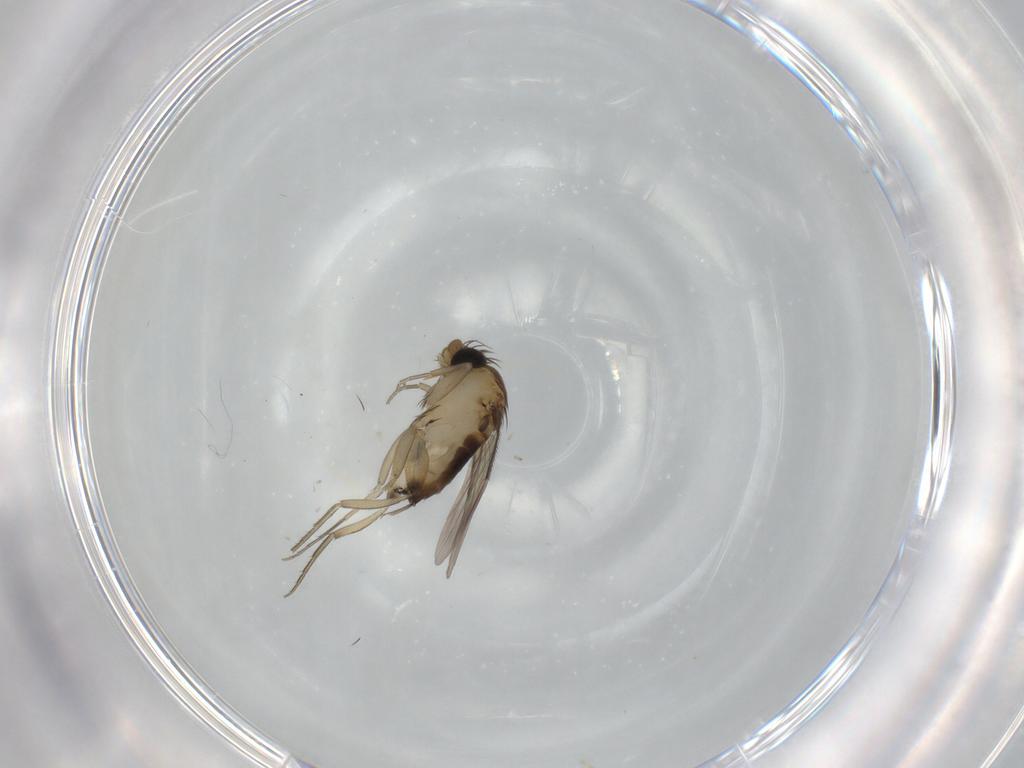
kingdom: Animalia
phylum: Arthropoda
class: Insecta
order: Diptera
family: Phoridae
